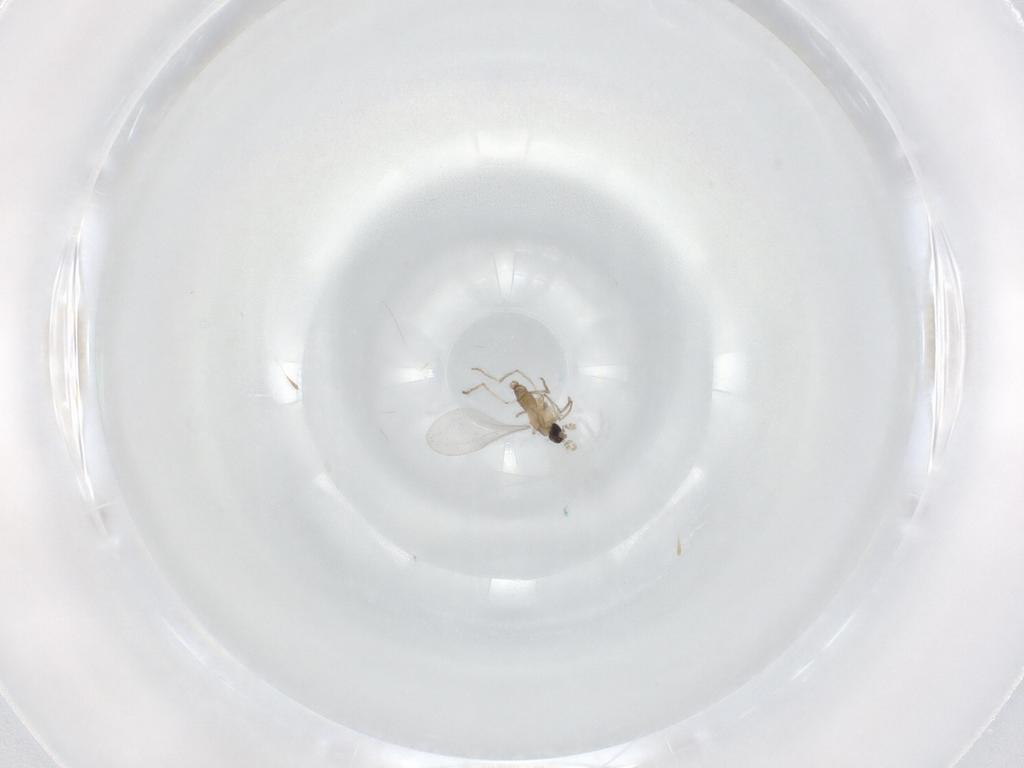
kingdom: Animalia
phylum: Arthropoda
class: Insecta
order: Diptera
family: Cecidomyiidae
